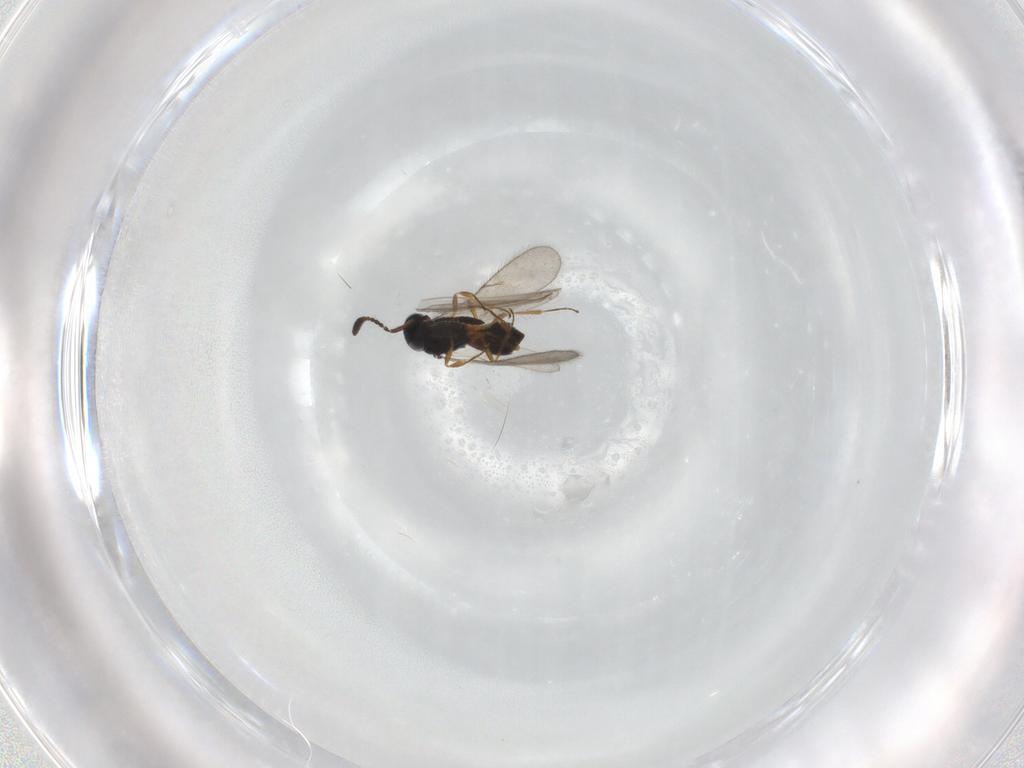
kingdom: Animalia
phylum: Arthropoda
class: Insecta
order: Hymenoptera
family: Scelionidae
